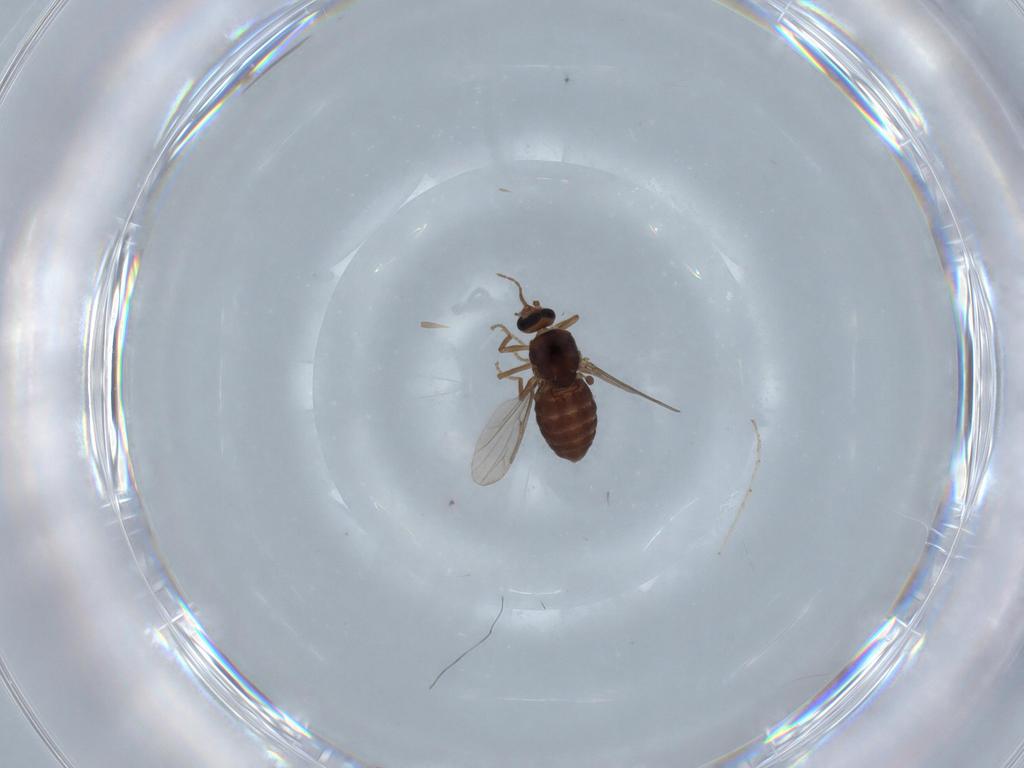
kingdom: Animalia
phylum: Arthropoda
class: Insecta
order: Diptera
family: Ceratopogonidae
